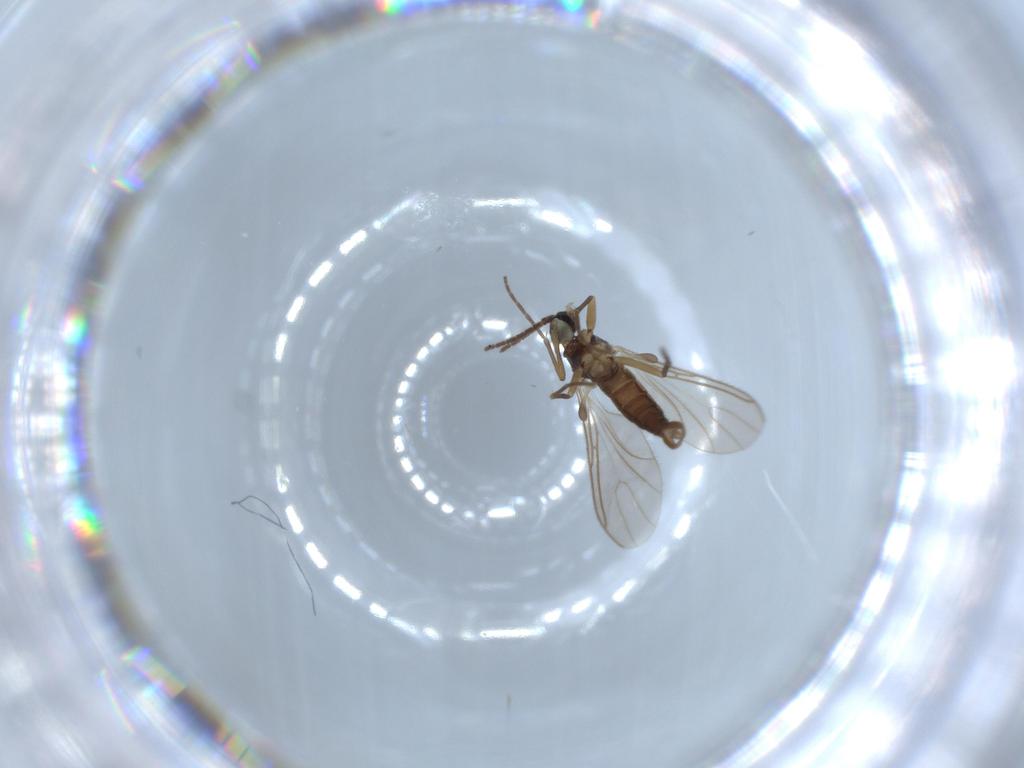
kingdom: Animalia
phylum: Arthropoda
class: Insecta
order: Diptera
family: Sciaridae
